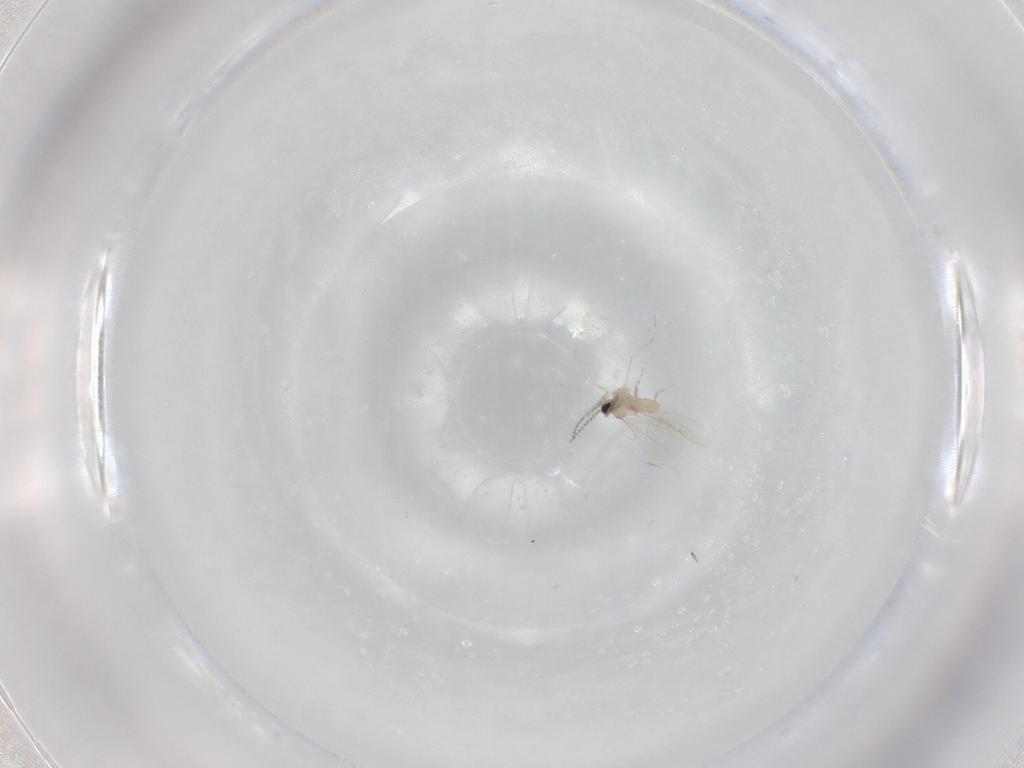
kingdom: Animalia
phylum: Arthropoda
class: Insecta
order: Diptera
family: Cecidomyiidae
